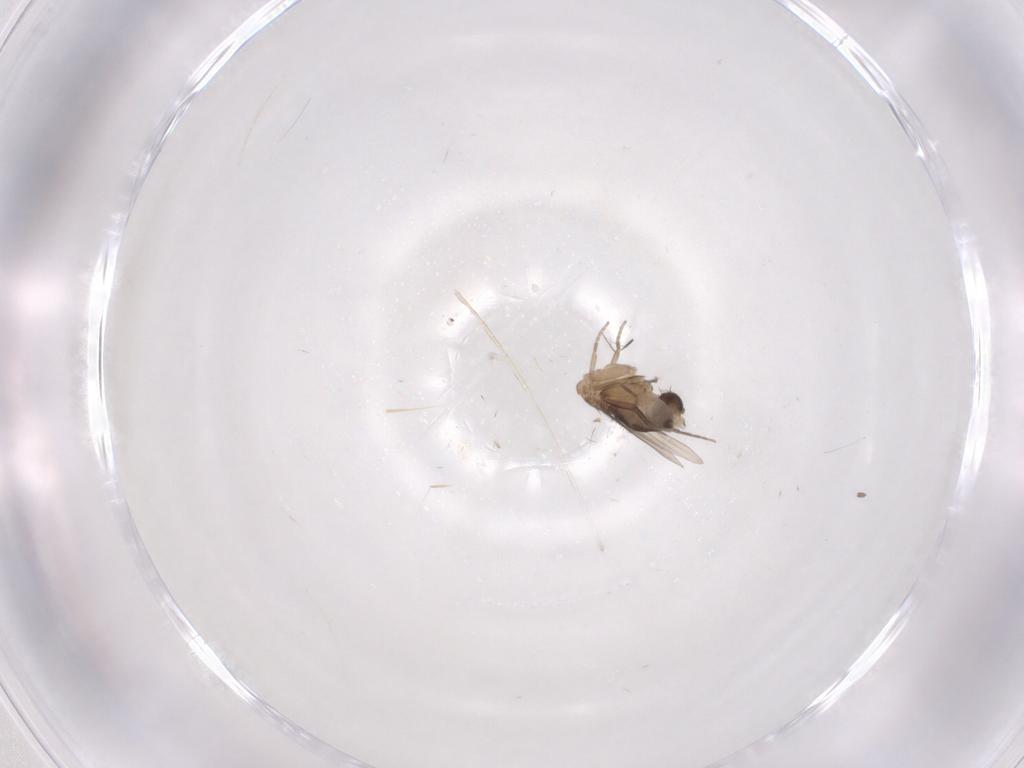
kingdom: Animalia
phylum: Arthropoda
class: Insecta
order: Diptera
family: Phoridae
